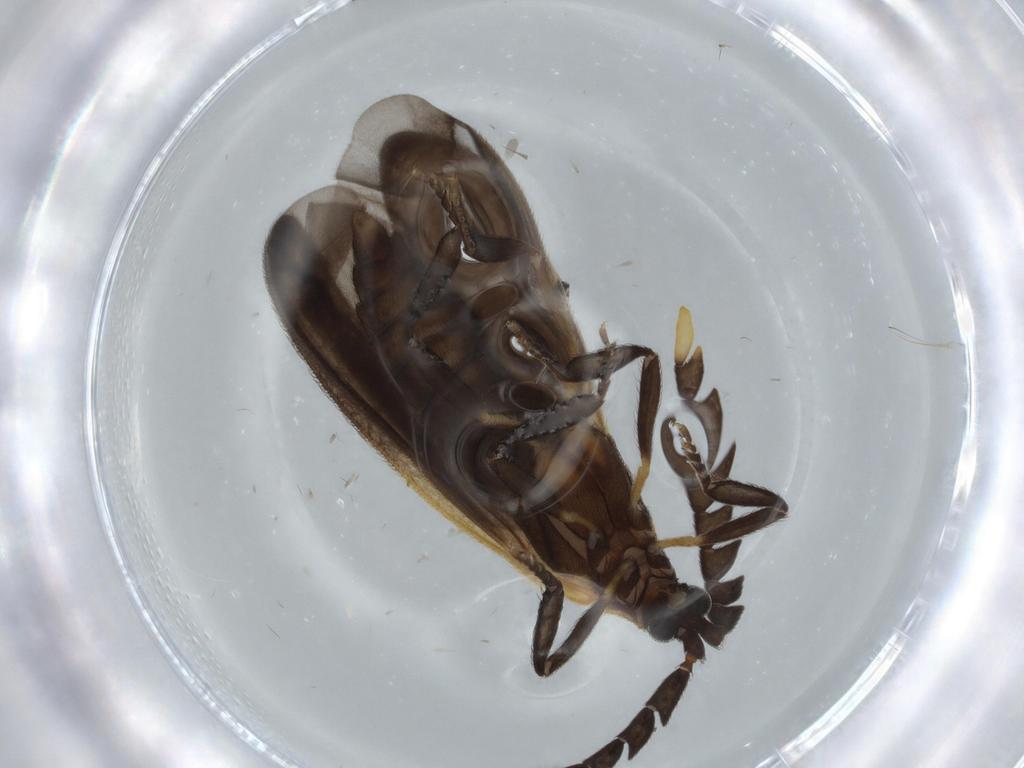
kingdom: Animalia
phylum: Arthropoda
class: Insecta
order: Coleoptera
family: Lycidae
